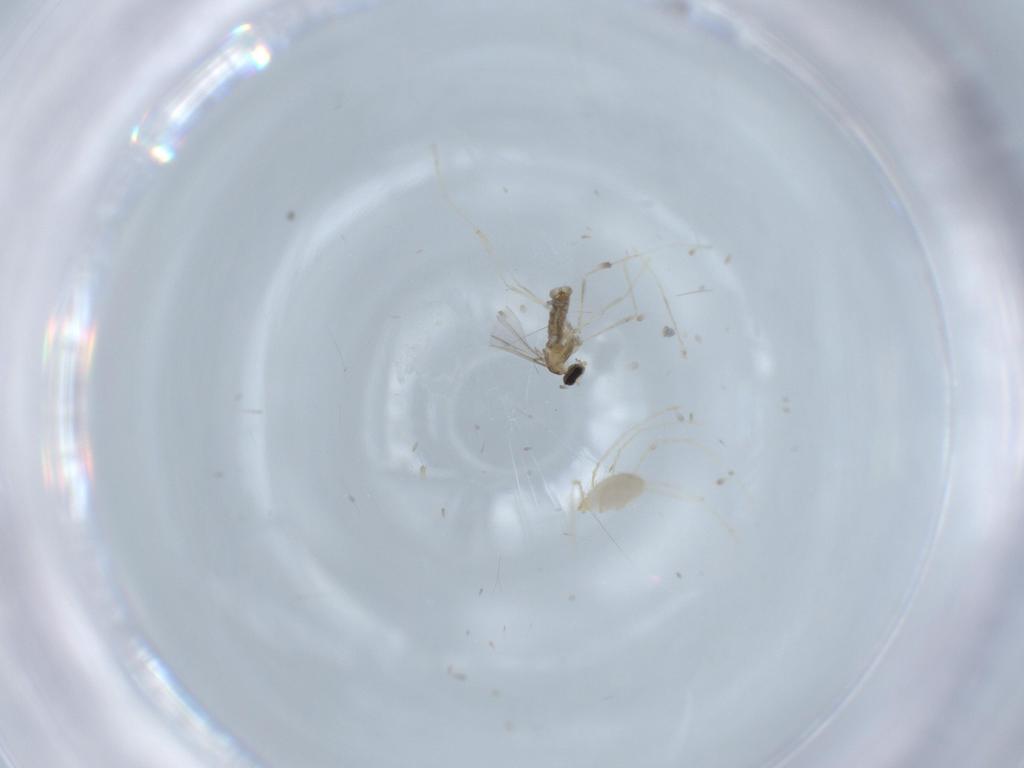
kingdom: Animalia
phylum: Arthropoda
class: Insecta
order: Diptera
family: Cecidomyiidae
